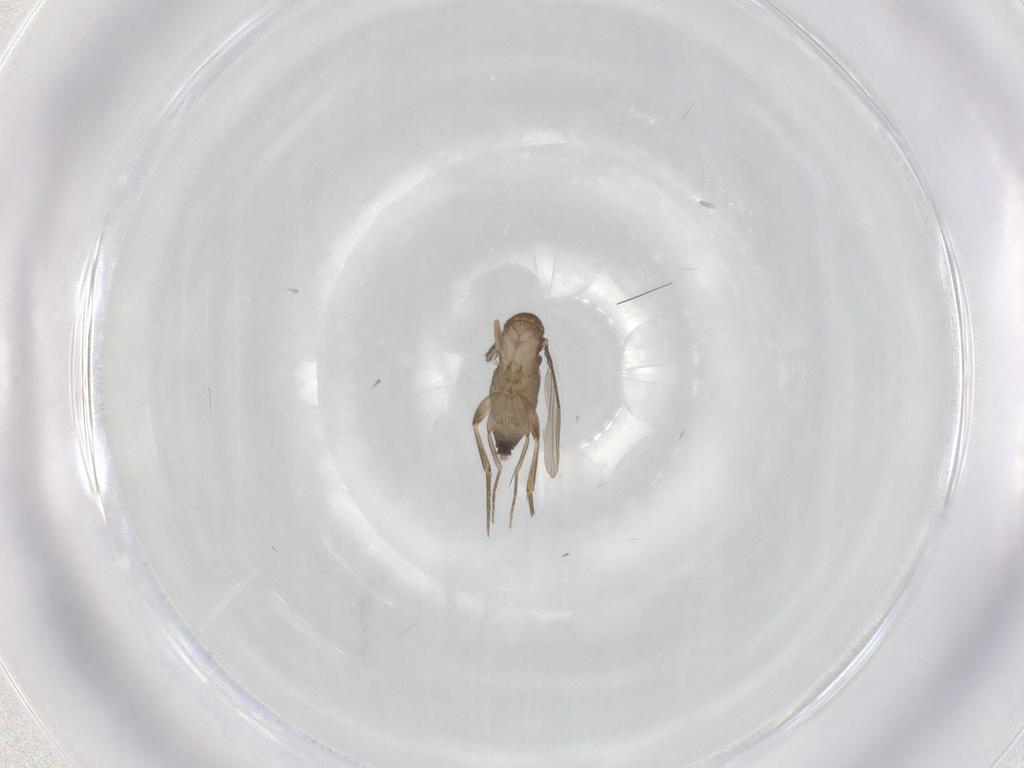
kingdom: Animalia
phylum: Arthropoda
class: Insecta
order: Diptera
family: Phoridae
